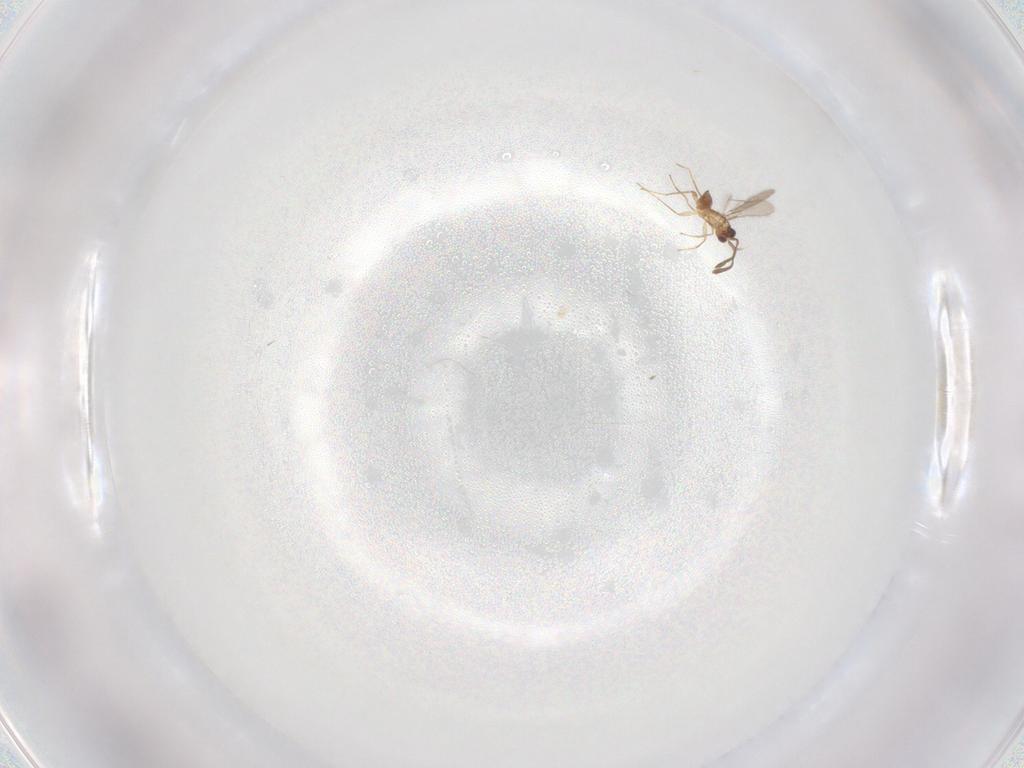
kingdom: Animalia
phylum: Arthropoda
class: Insecta
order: Hymenoptera
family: Mymaridae
